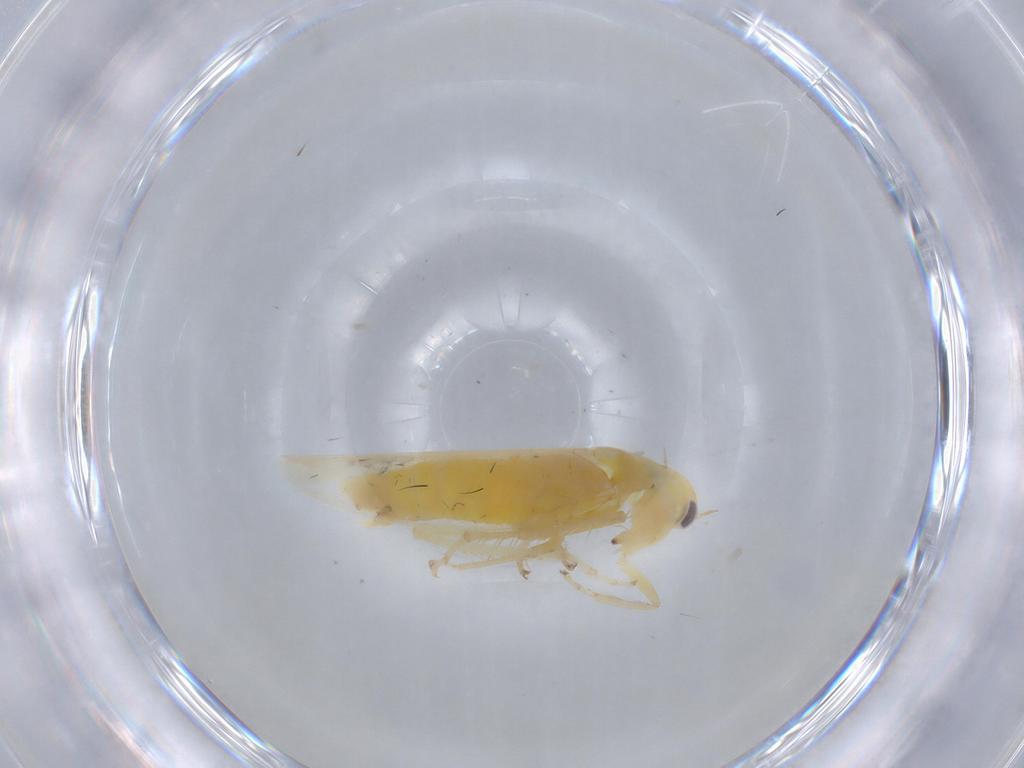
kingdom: Animalia
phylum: Arthropoda
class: Insecta
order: Hemiptera
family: Cicadellidae
